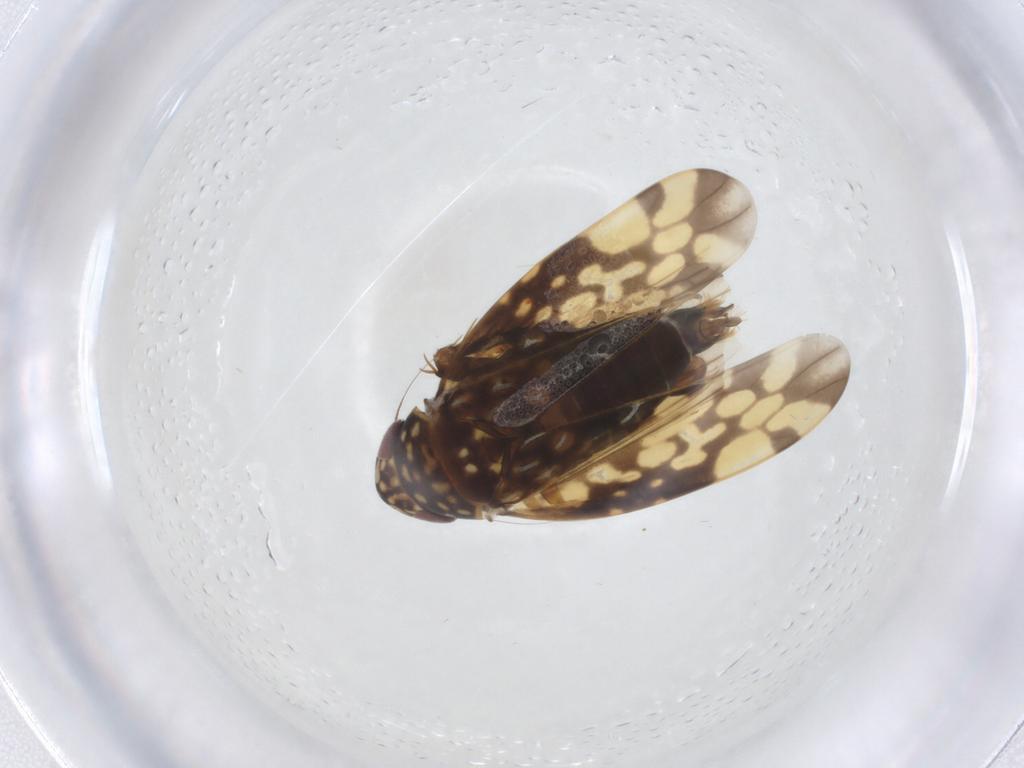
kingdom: Animalia
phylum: Arthropoda
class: Insecta
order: Hemiptera
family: Cicadellidae
